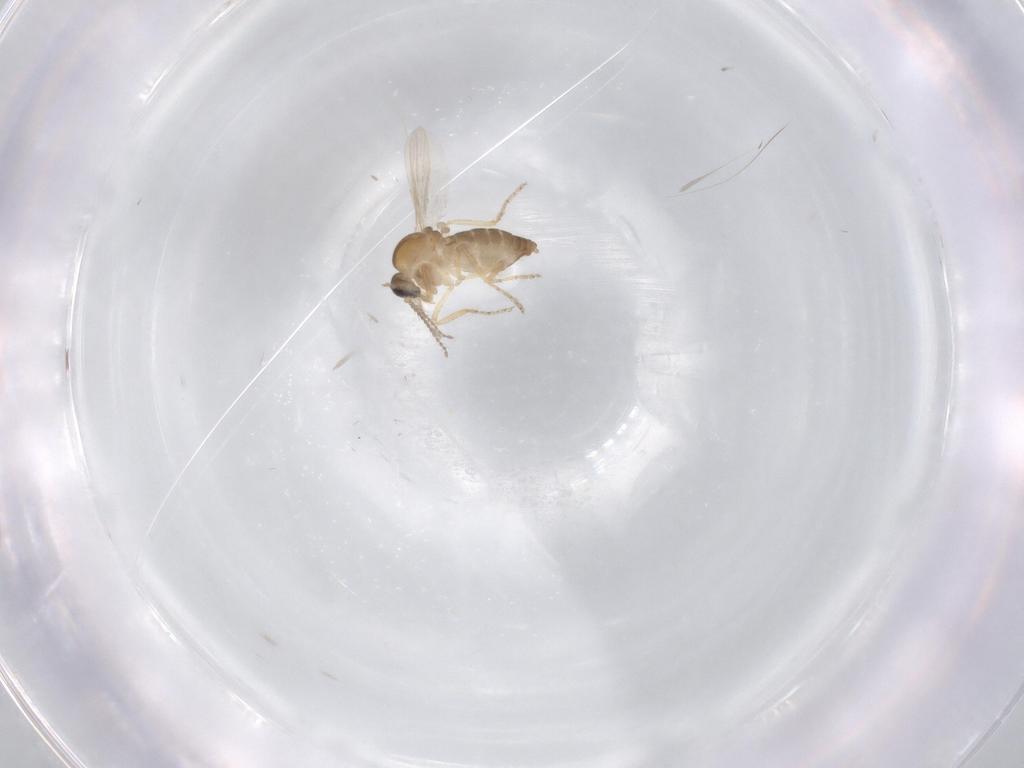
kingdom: Animalia
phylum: Arthropoda
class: Insecta
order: Diptera
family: Ceratopogonidae
